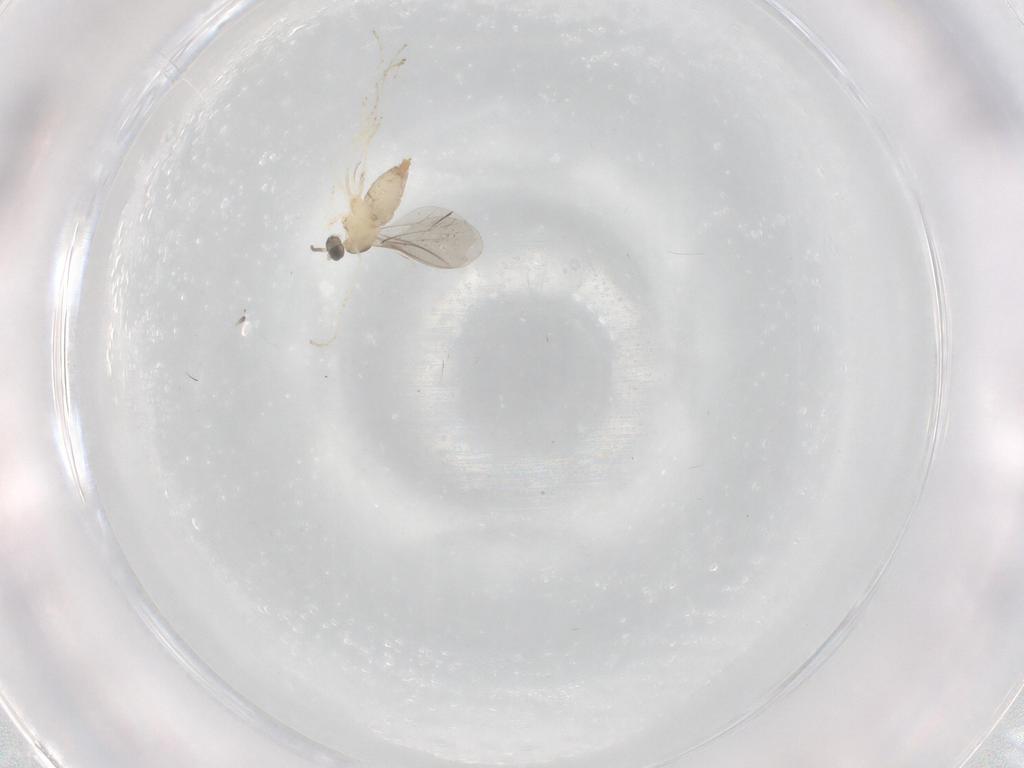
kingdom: Animalia
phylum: Arthropoda
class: Insecta
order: Diptera
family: Cecidomyiidae
